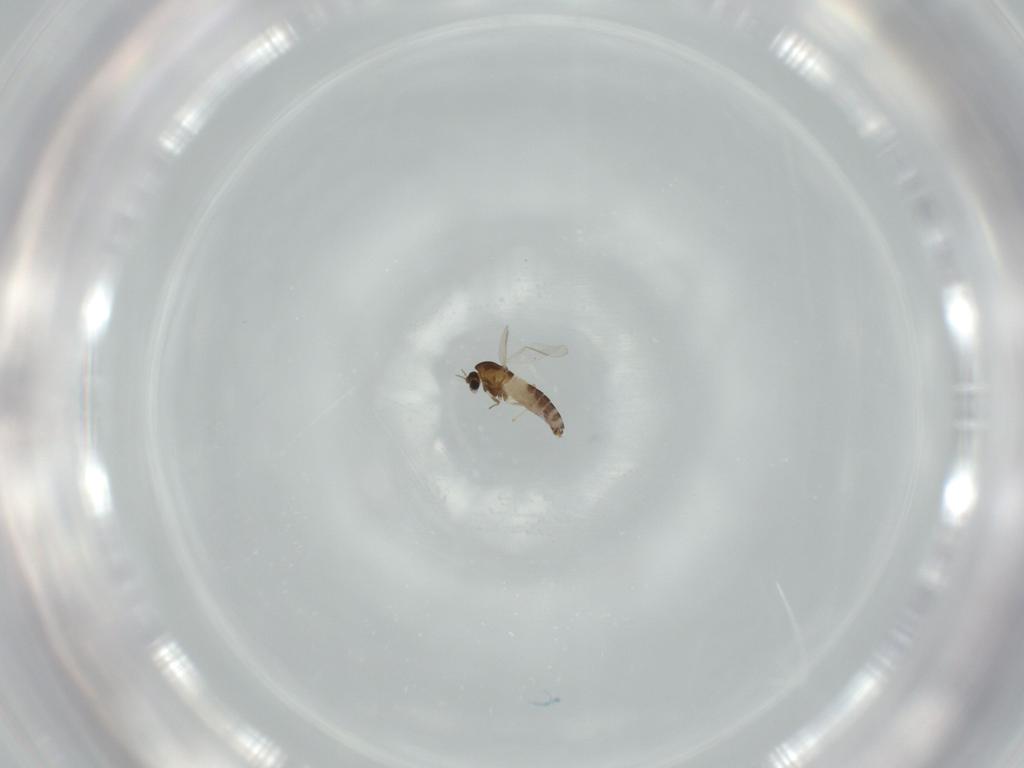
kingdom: Animalia
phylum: Arthropoda
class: Insecta
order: Diptera
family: Chironomidae
